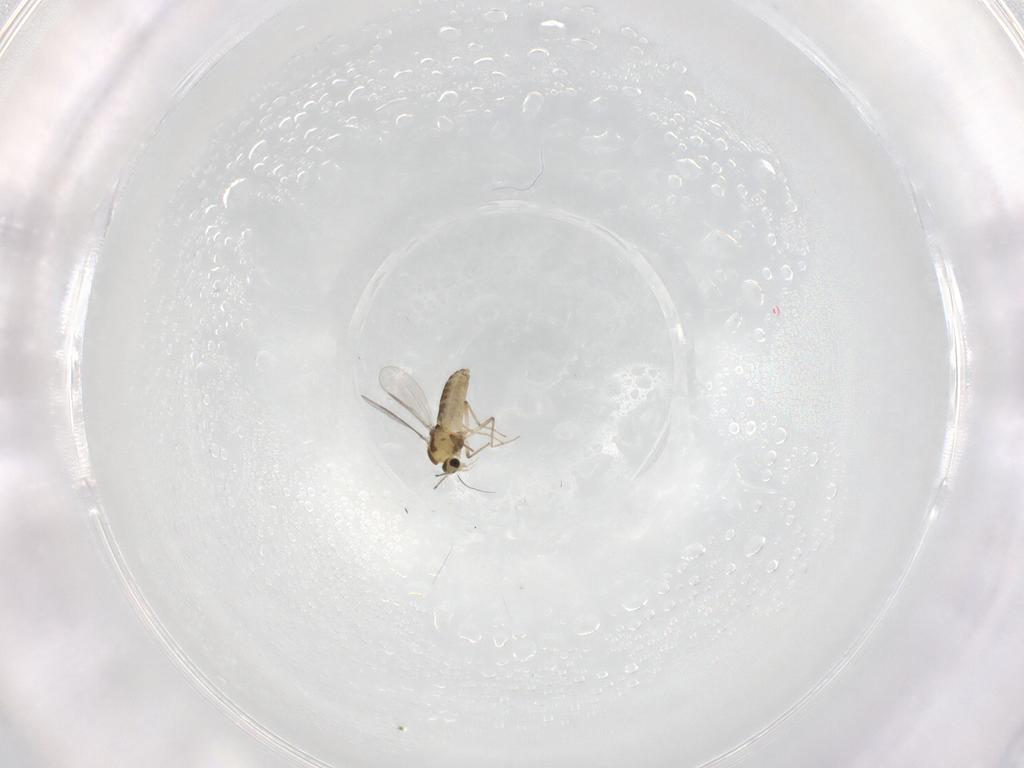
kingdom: Animalia
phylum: Arthropoda
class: Insecta
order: Diptera
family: Chironomidae
